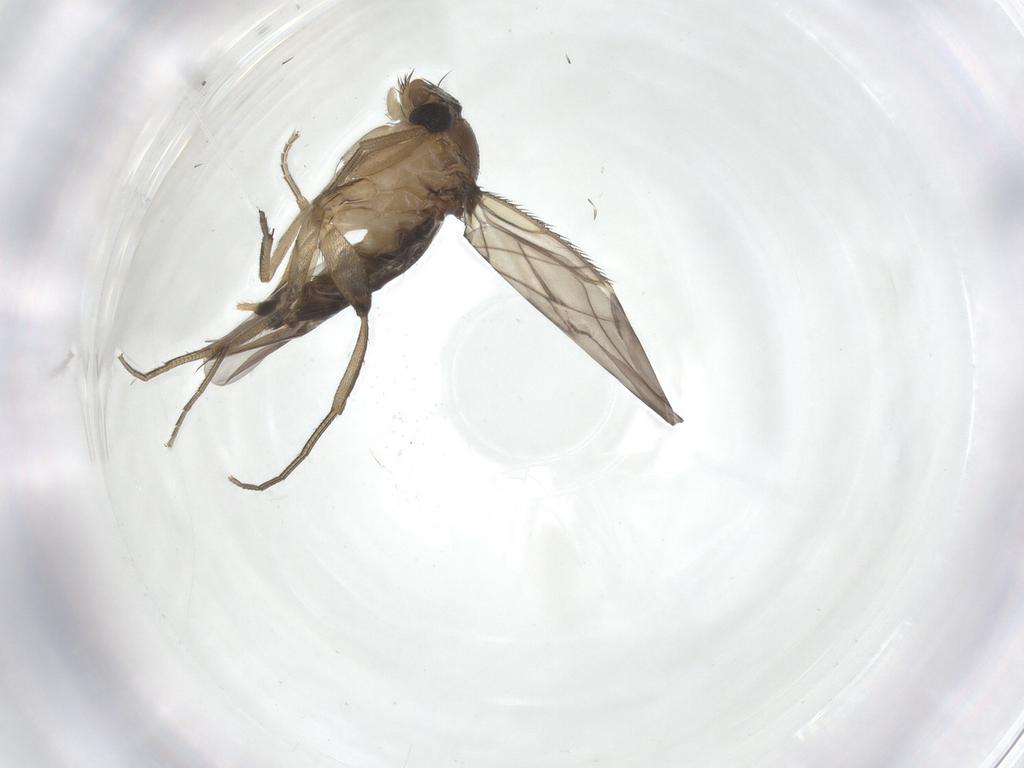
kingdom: Animalia
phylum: Arthropoda
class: Insecta
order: Diptera
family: Phoridae
